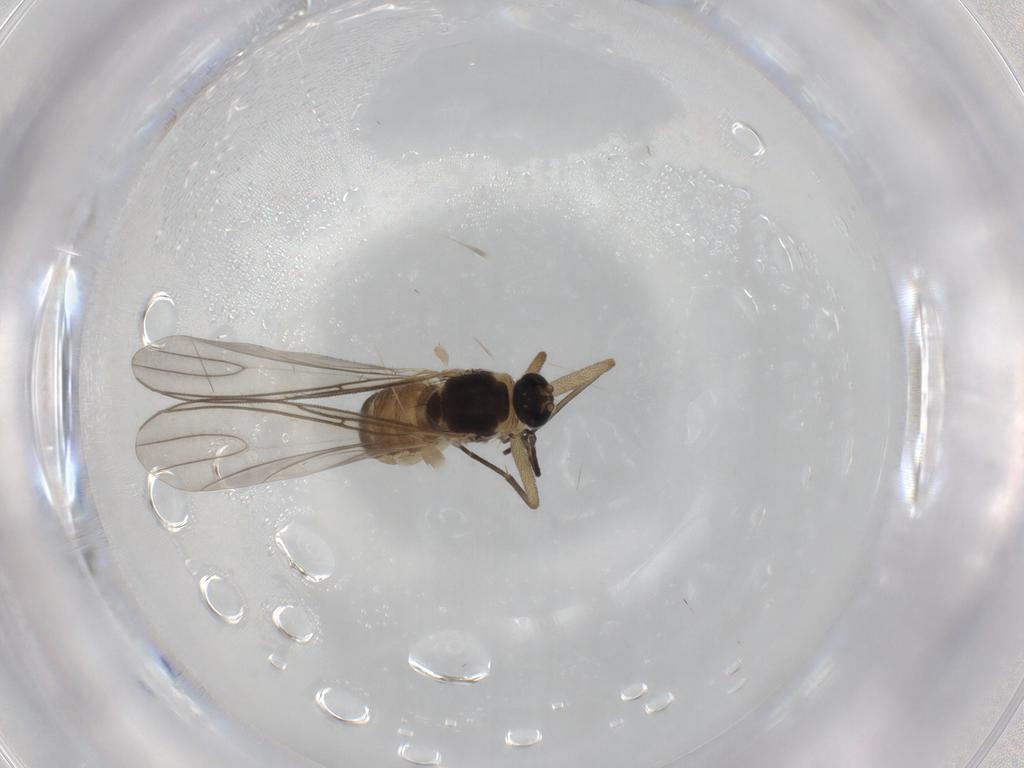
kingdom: Animalia
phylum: Arthropoda
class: Insecta
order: Diptera
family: Sciaridae
